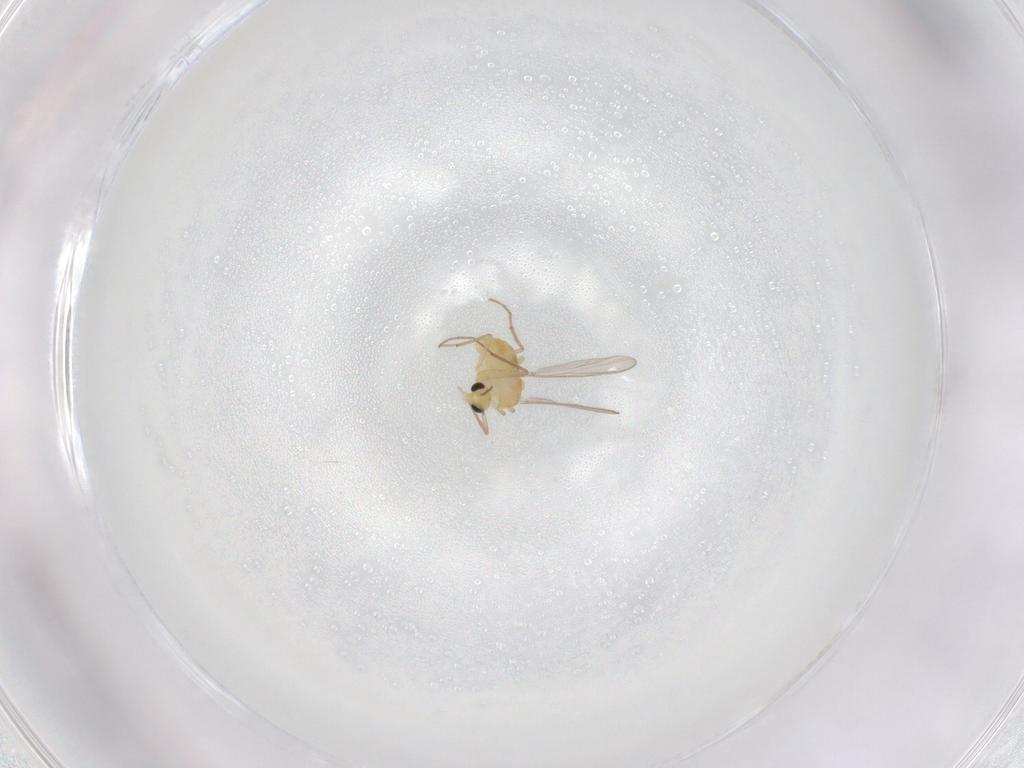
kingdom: Animalia
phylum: Arthropoda
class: Insecta
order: Diptera
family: Chironomidae
